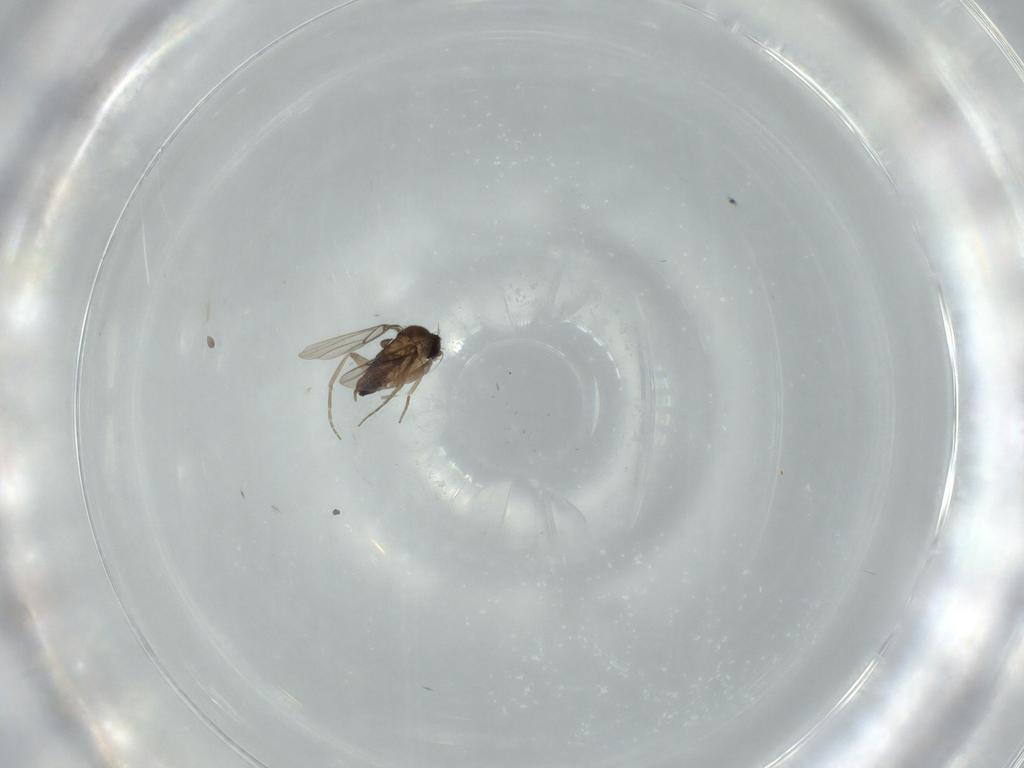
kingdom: Animalia
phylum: Arthropoda
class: Insecta
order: Diptera
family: Phoridae
